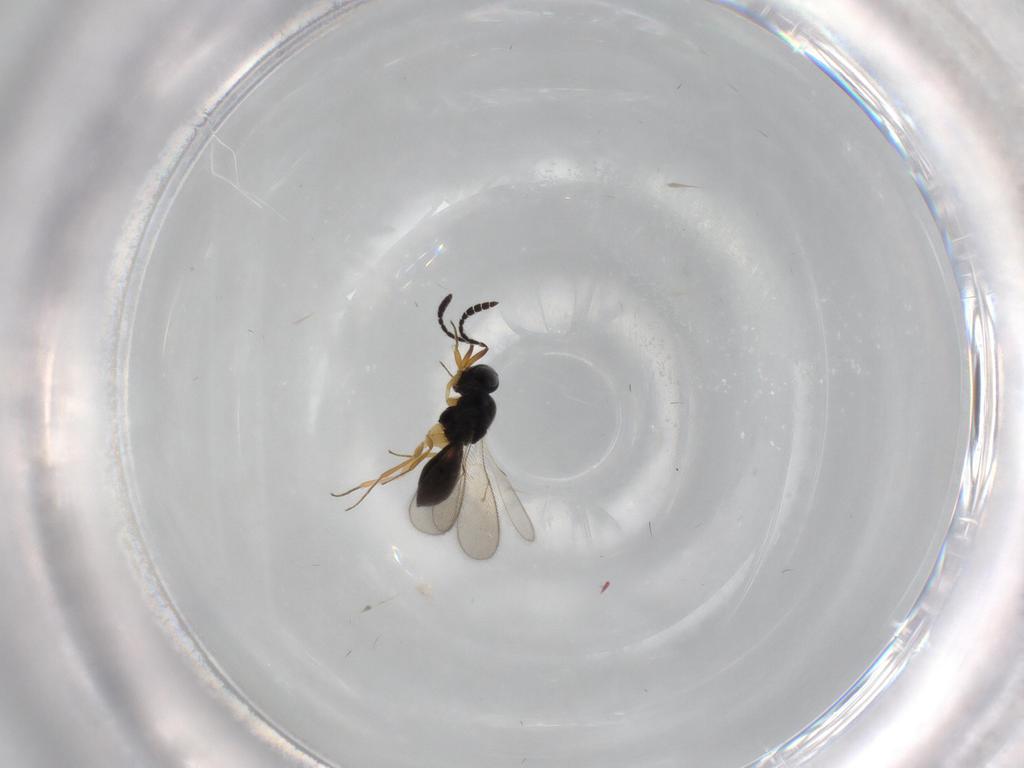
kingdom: Animalia
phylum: Arthropoda
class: Insecta
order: Hymenoptera
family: Scelionidae
